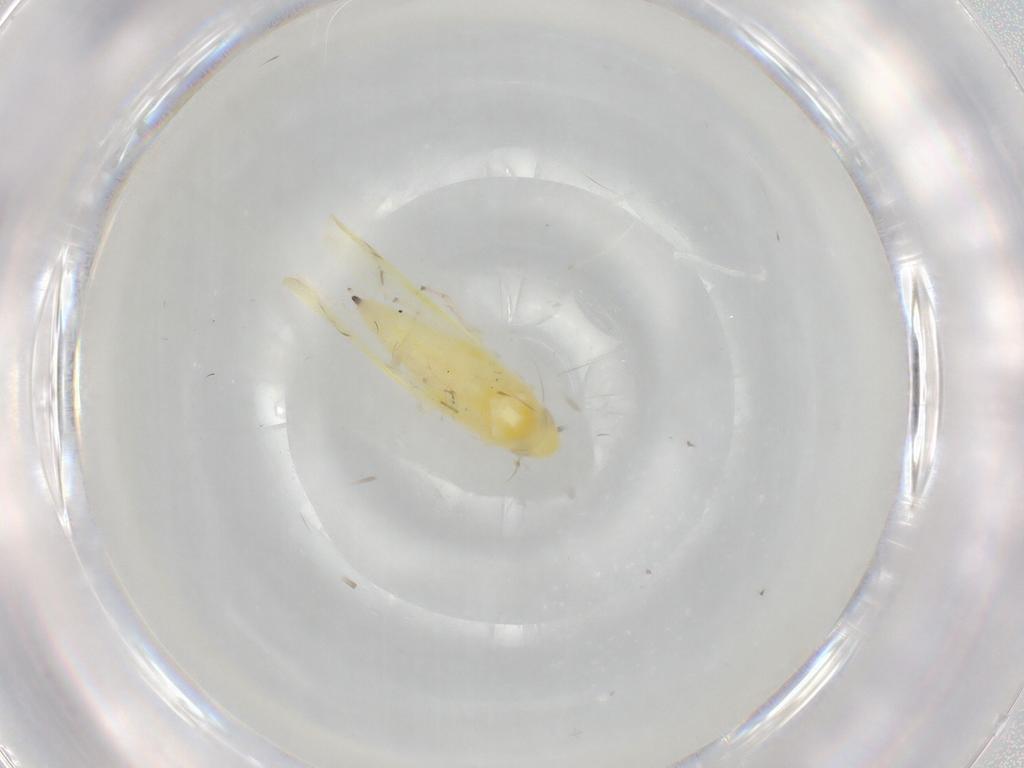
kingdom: Animalia
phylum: Arthropoda
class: Insecta
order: Hemiptera
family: Cicadellidae
